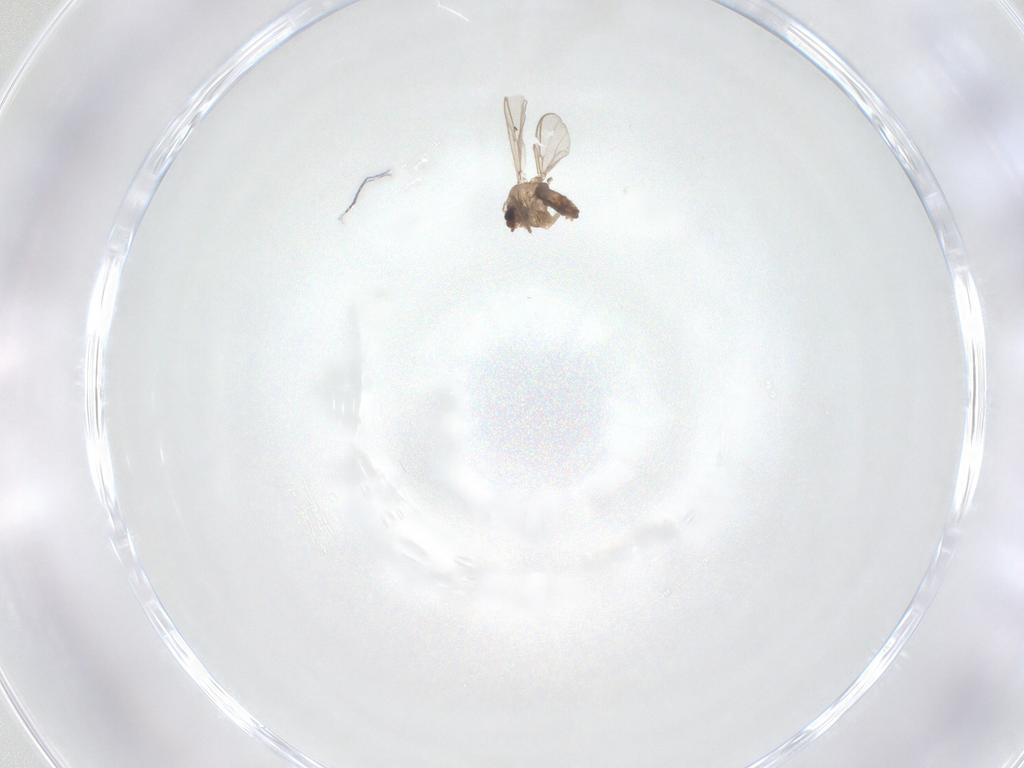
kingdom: Animalia
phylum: Arthropoda
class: Insecta
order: Diptera
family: Chironomidae
